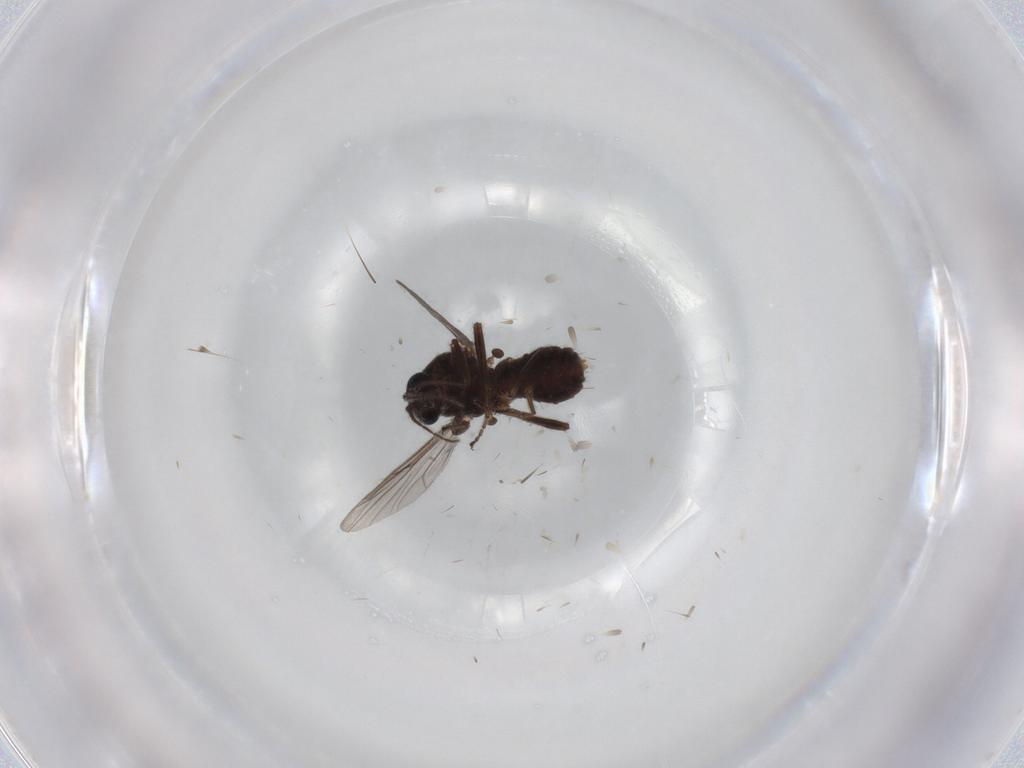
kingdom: Animalia
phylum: Arthropoda
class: Insecta
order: Diptera
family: Ceratopogonidae
